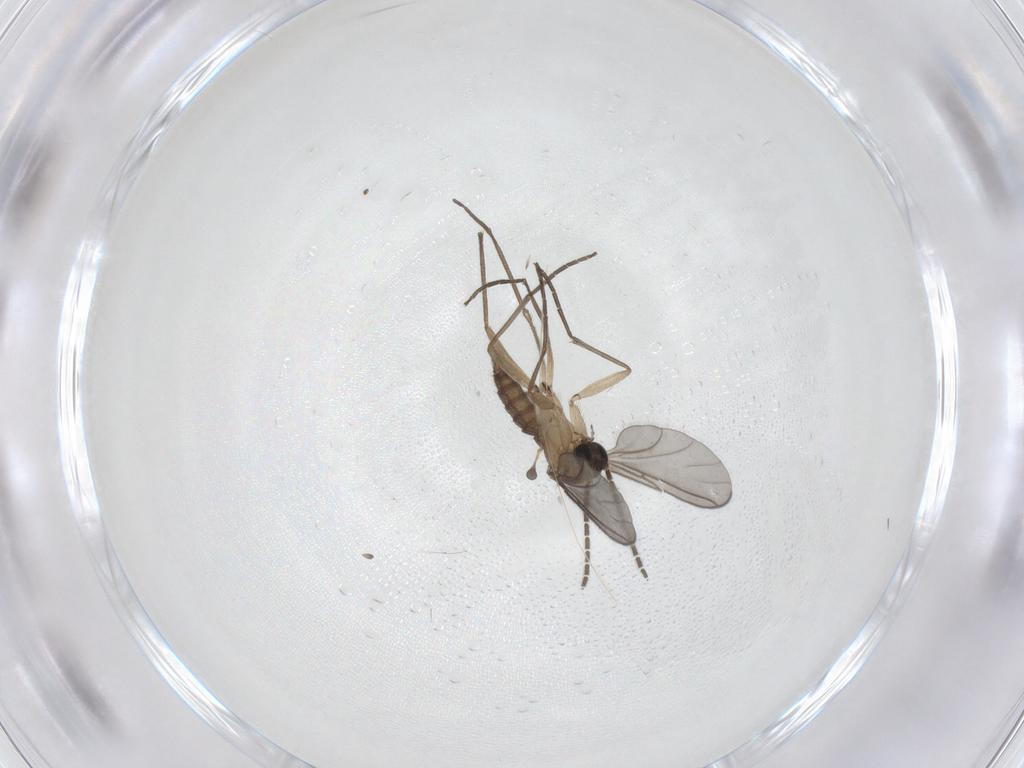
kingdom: Animalia
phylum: Arthropoda
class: Insecta
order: Diptera
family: Sciaridae
